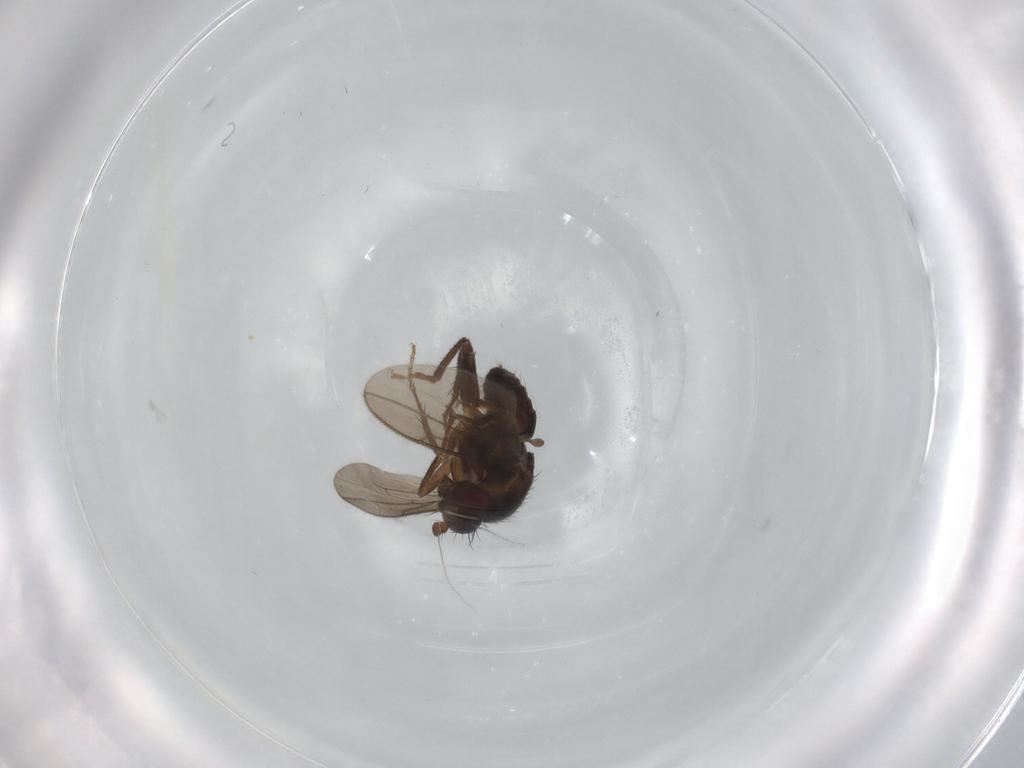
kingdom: Animalia
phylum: Arthropoda
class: Insecta
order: Diptera
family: Sphaeroceridae
